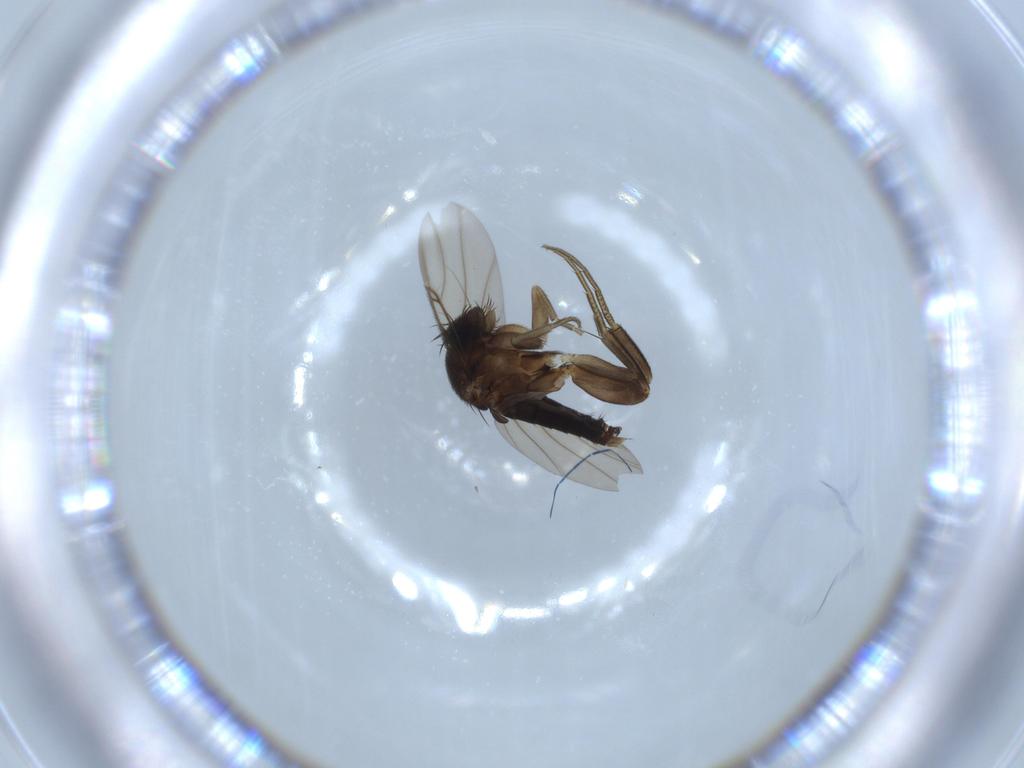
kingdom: Animalia
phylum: Arthropoda
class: Insecta
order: Diptera
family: Phoridae
